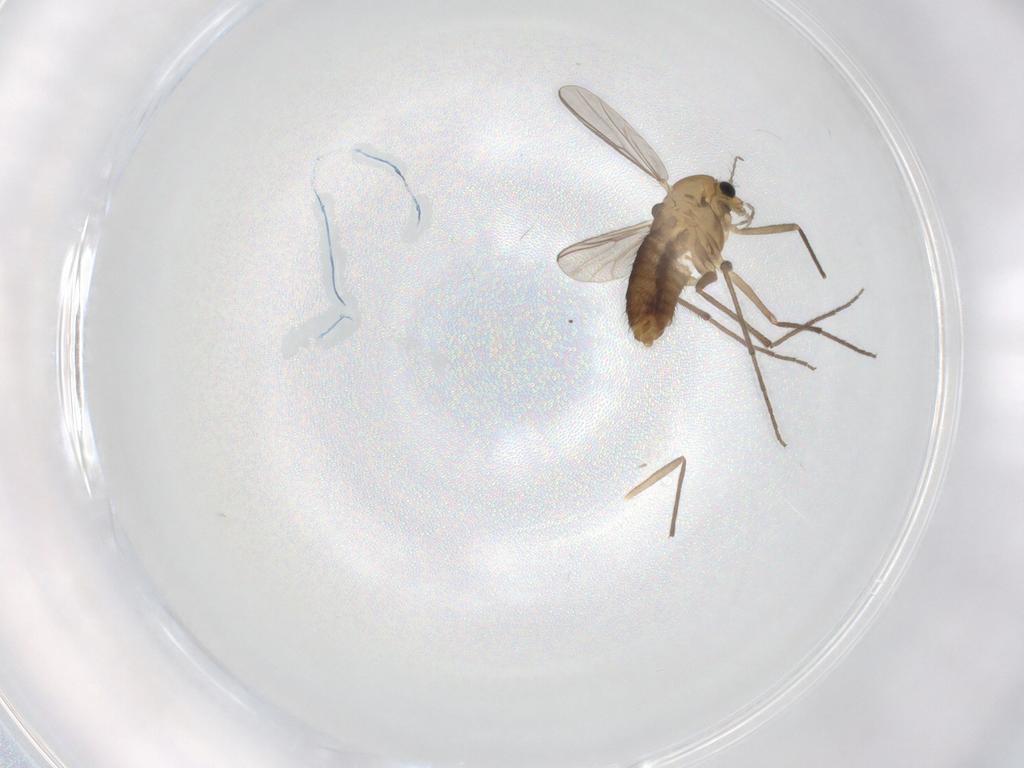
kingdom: Animalia
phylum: Arthropoda
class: Insecta
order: Diptera
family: Chironomidae
